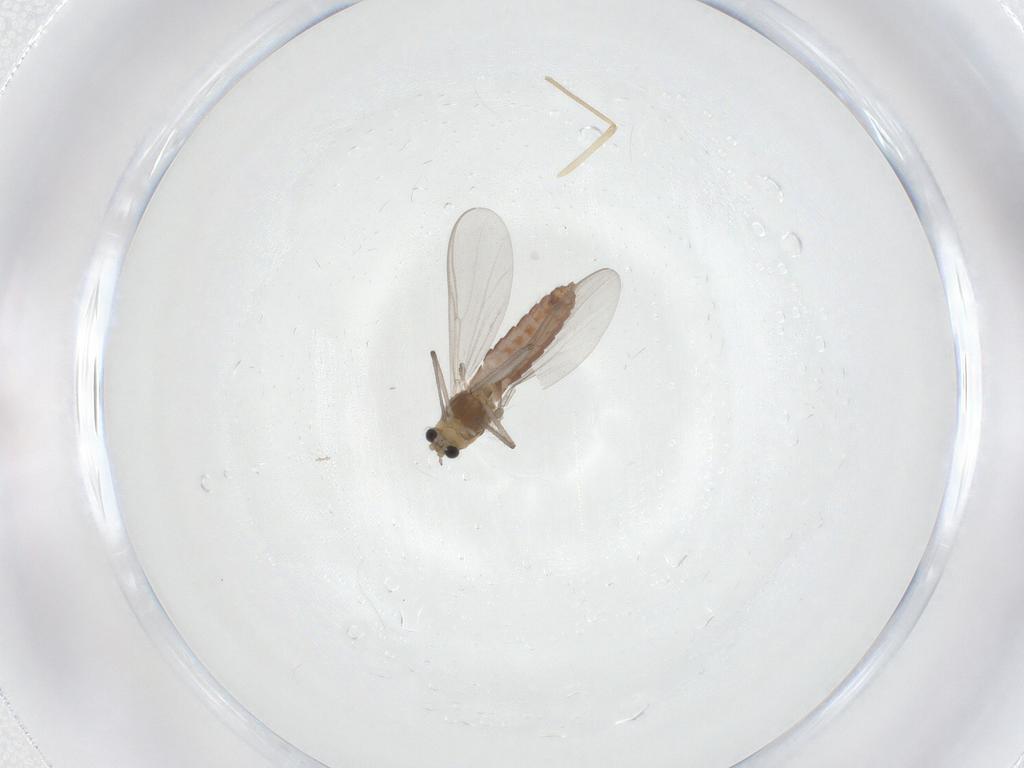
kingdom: Animalia
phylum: Arthropoda
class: Insecta
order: Diptera
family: Chironomidae
